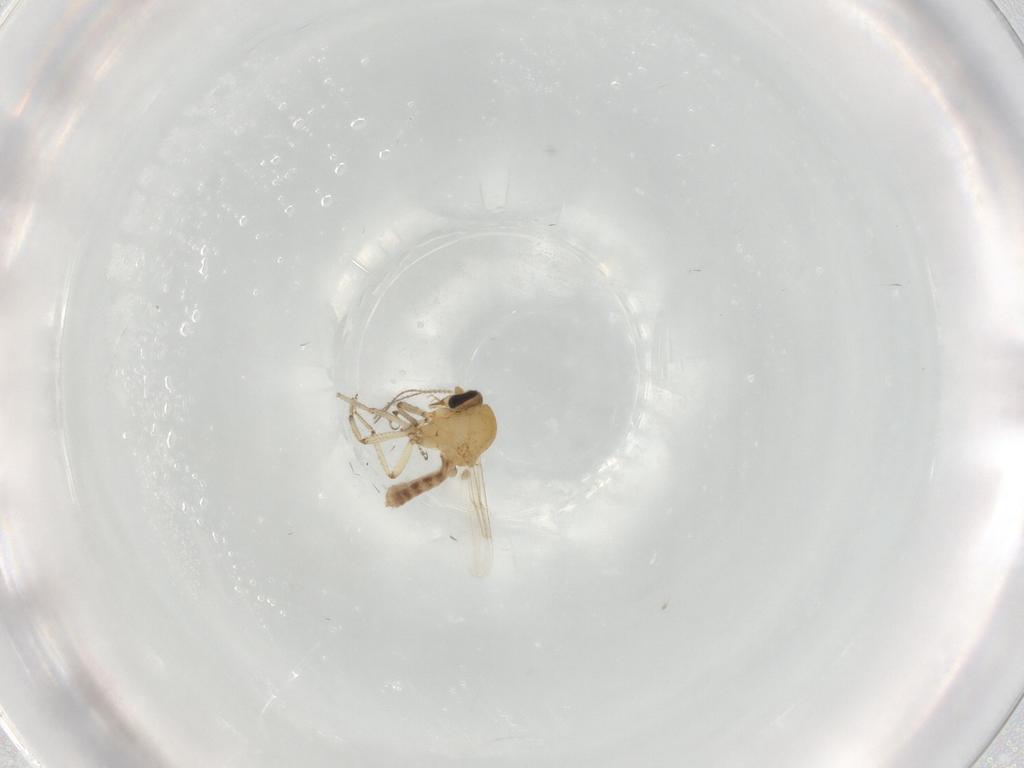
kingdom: Animalia
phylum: Arthropoda
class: Insecta
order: Diptera
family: Ceratopogonidae
